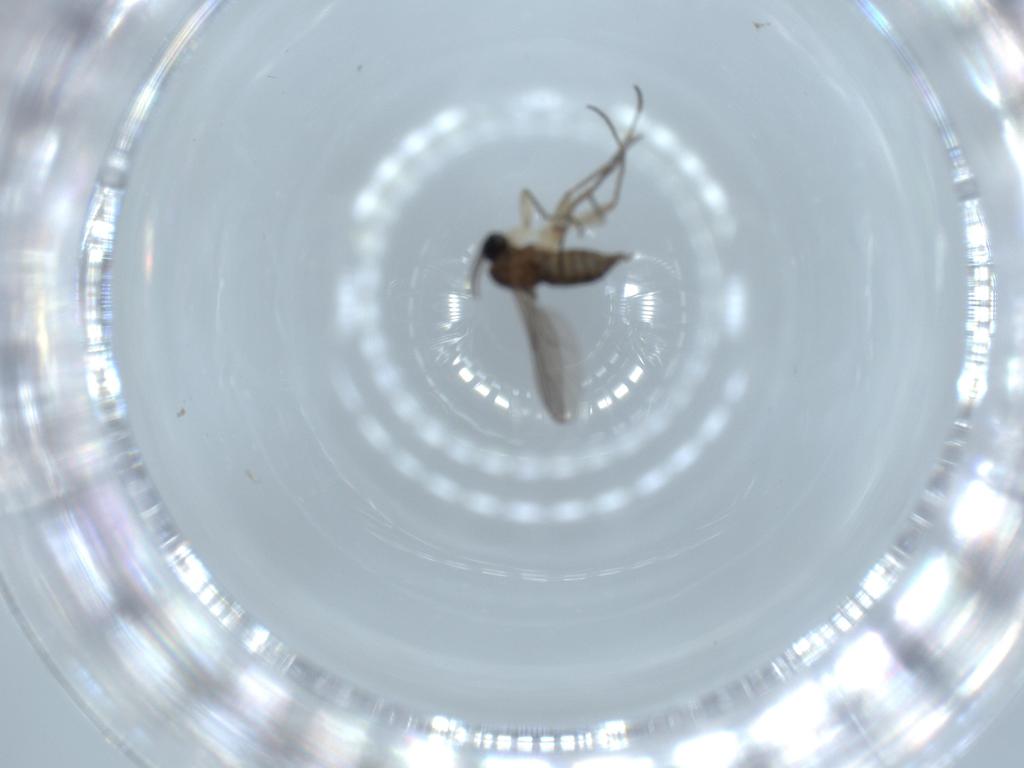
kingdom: Animalia
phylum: Arthropoda
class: Insecta
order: Diptera
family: Sciaridae
